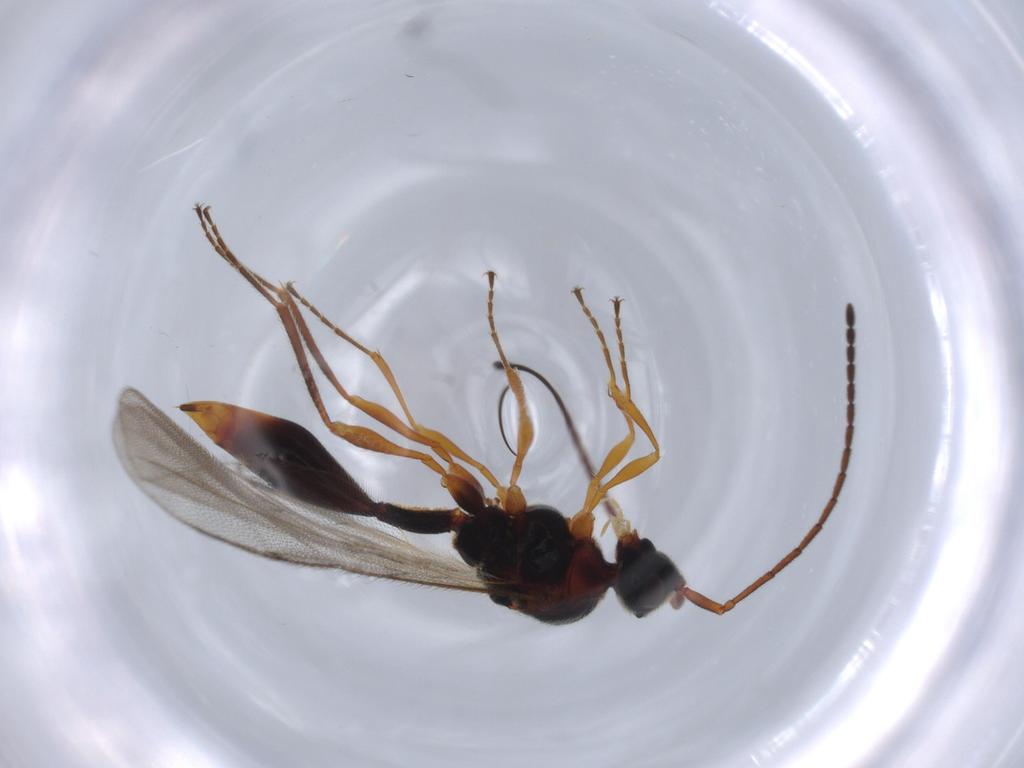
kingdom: Animalia
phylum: Arthropoda
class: Insecta
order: Hymenoptera
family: Diapriidae
